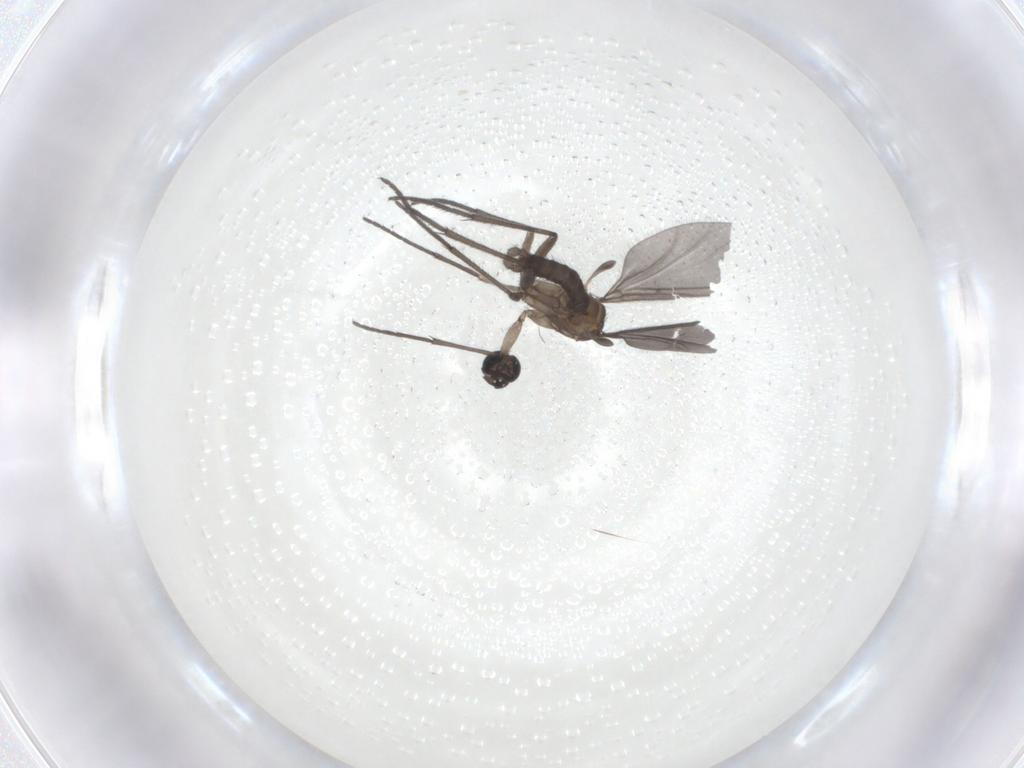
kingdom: Animalia
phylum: Arthropoda
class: Insecta
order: Diptera
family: Sciaridae
